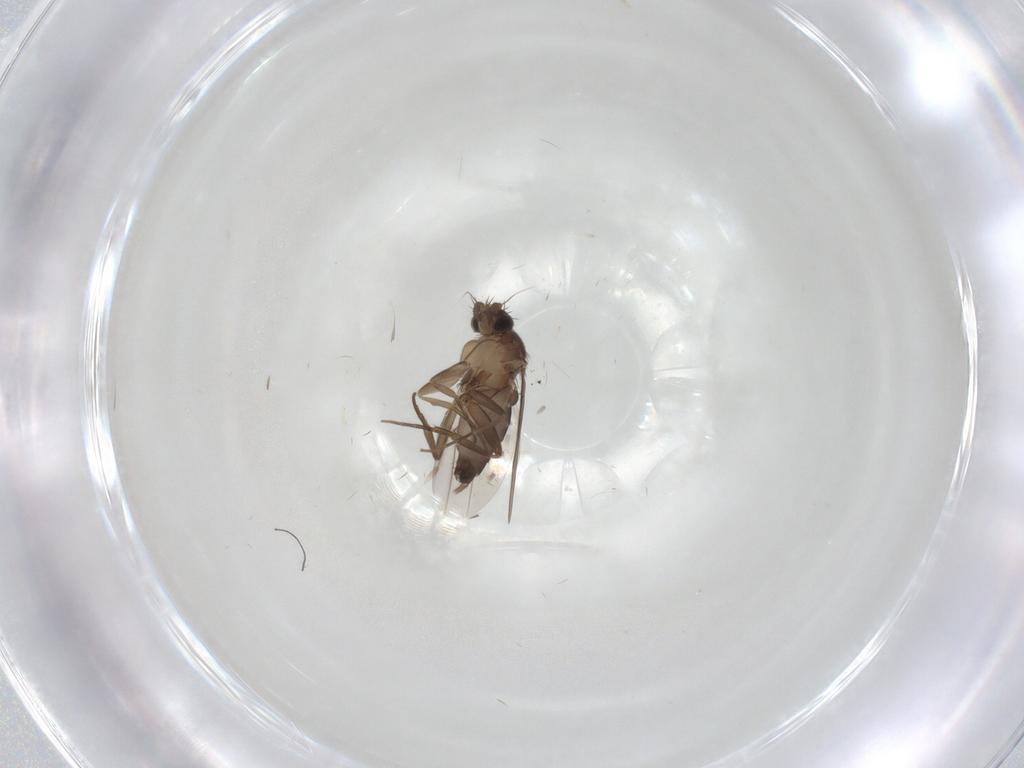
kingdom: Animalia
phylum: Arthropoda
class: Insecta
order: Diptera
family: Phoridae
